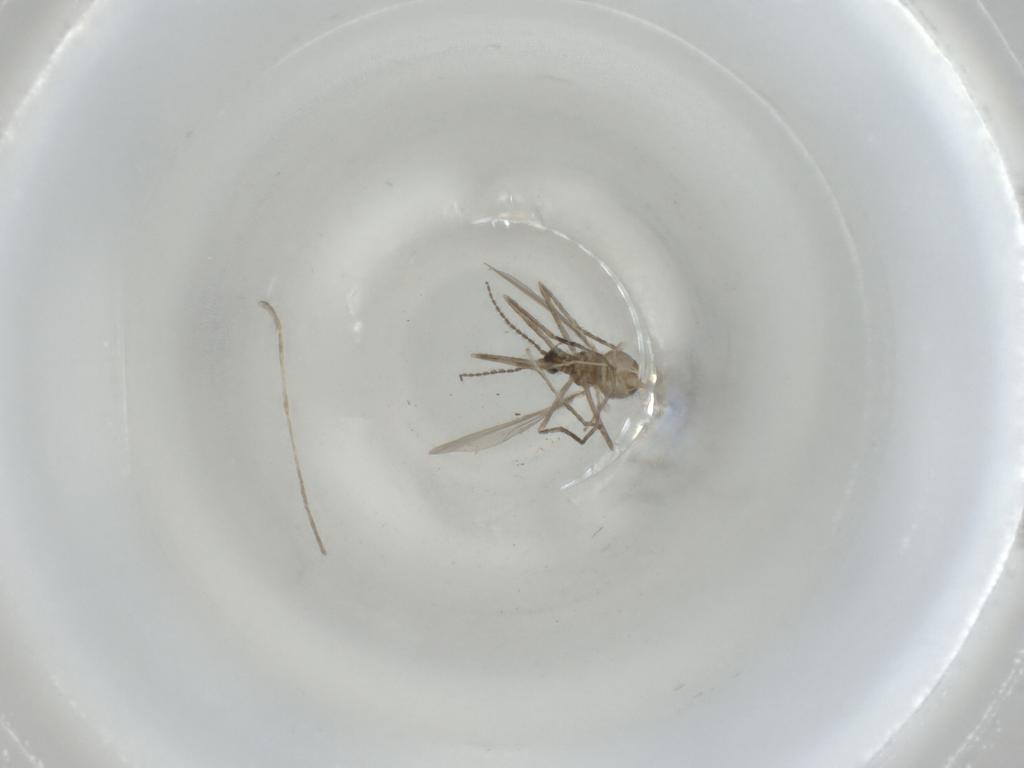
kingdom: Animalia
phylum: Arthropoda
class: Insecta
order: Diptera
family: Cecidomyiidae
